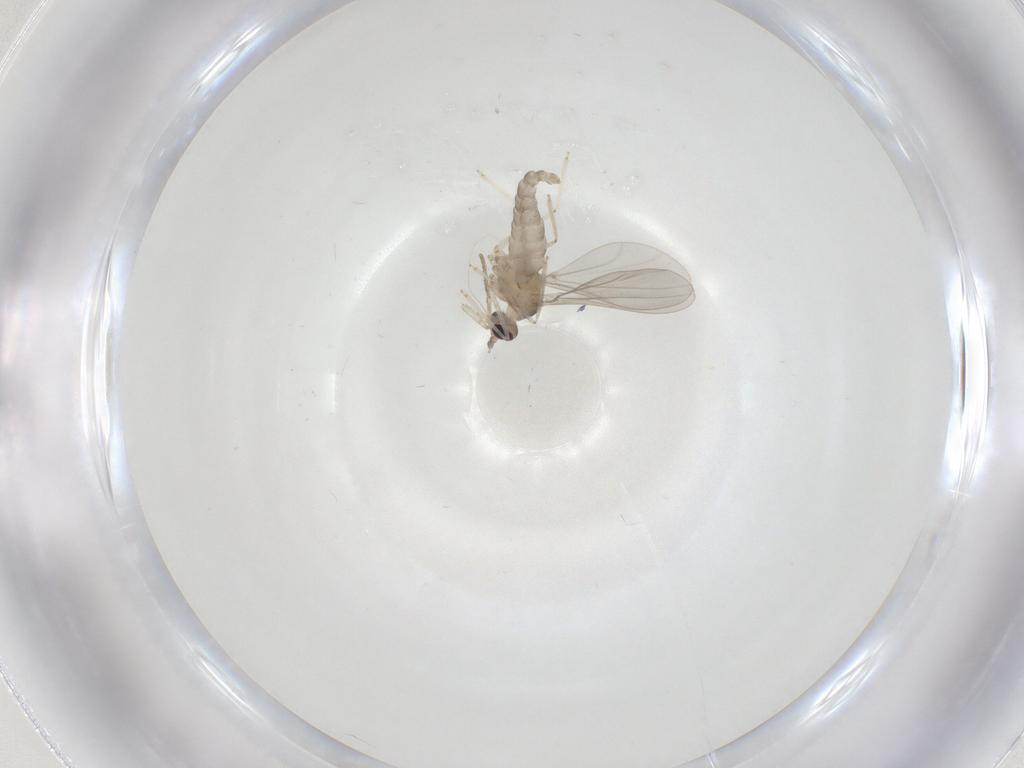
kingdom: Animalia
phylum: Arthropoda
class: Insecta
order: Diptera
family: Cecidomyiidae
